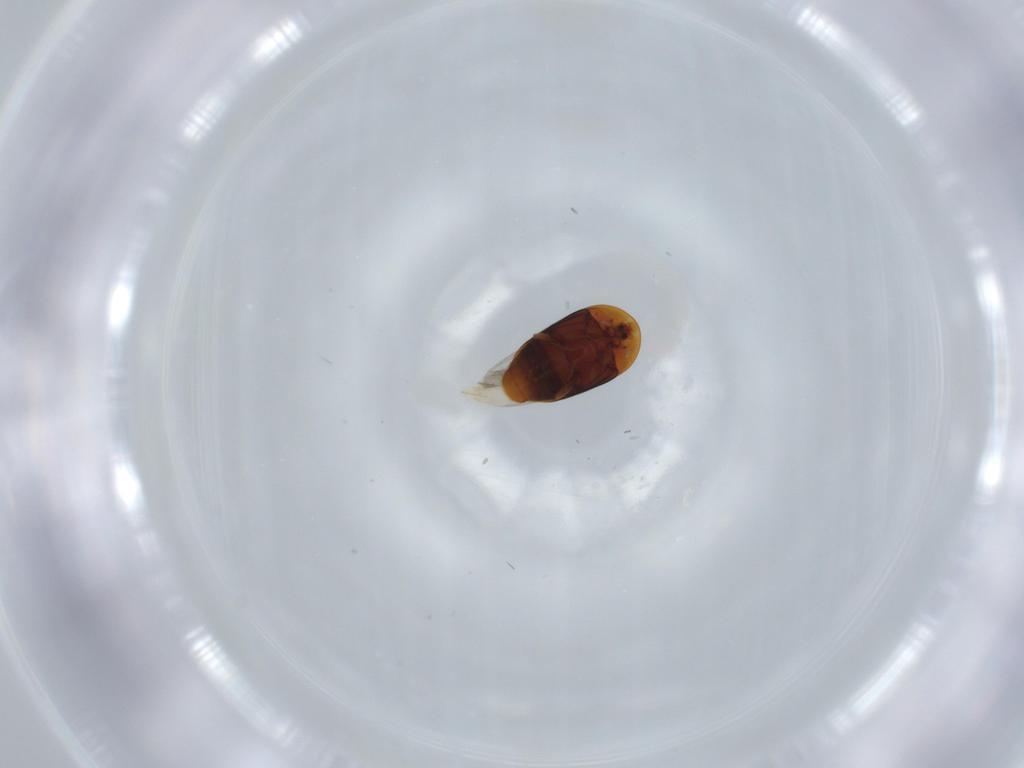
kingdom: Animalia
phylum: Arthropoda
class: Insecta
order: Coleoptera
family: Corylophidae
